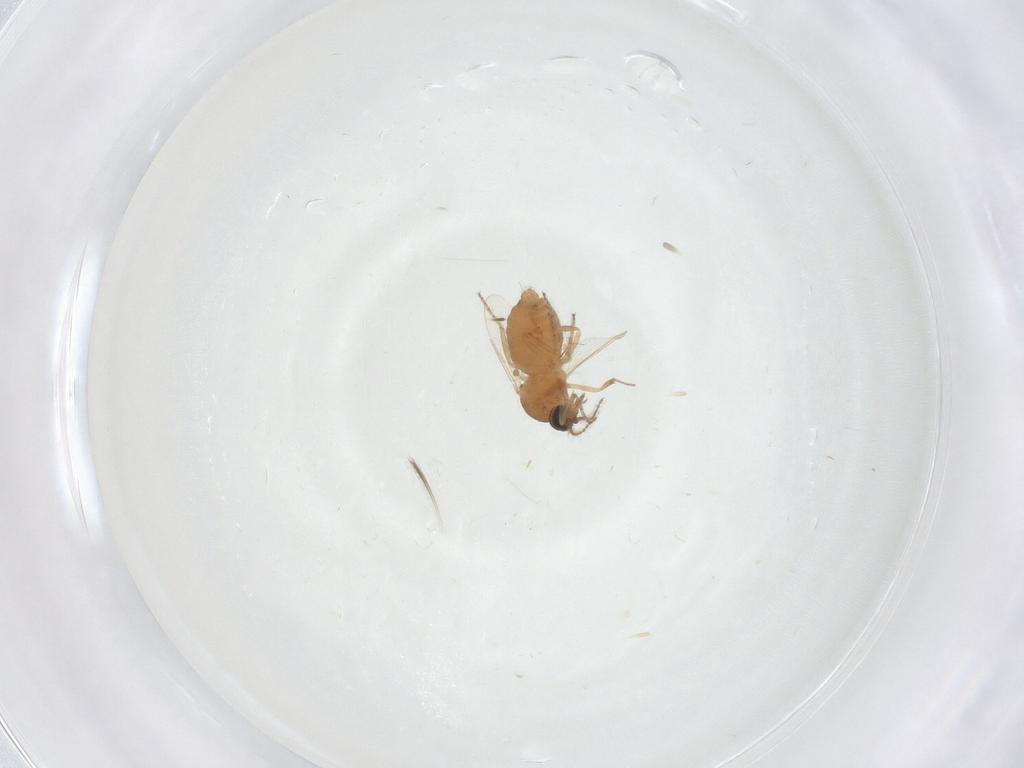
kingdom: Animalia
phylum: Arthropoda
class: Insecta
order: Diptera
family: Ceratopogonidae
